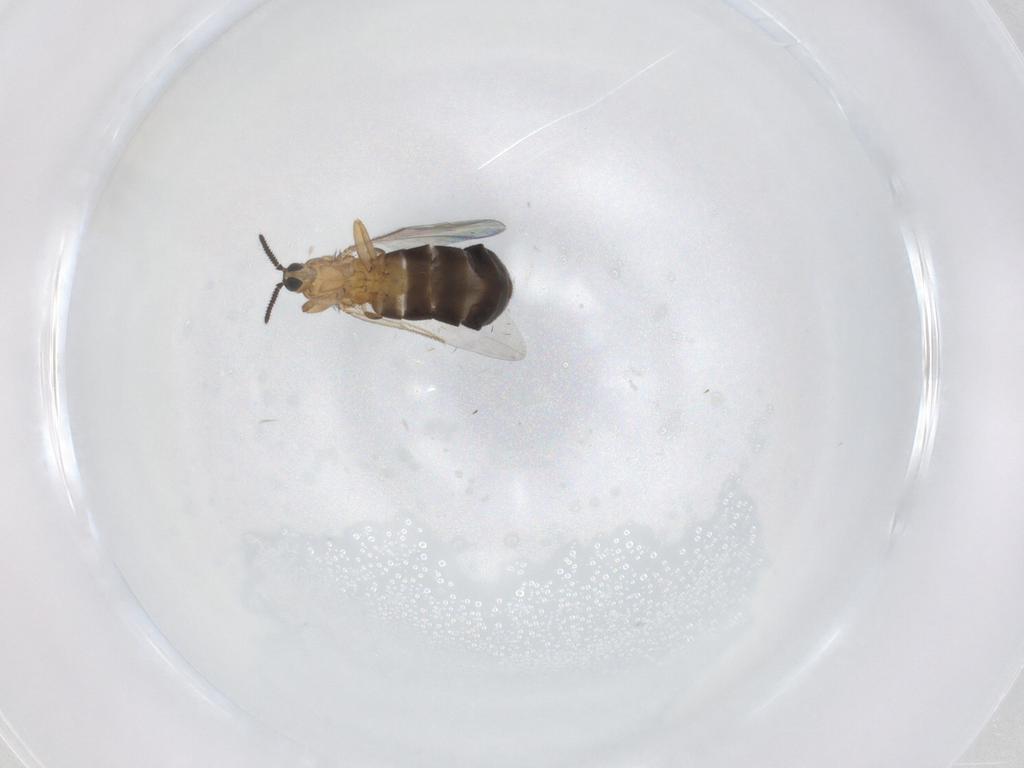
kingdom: Animalia
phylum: Arthropoda
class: Insecta
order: Diptera
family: Scatopsidae
